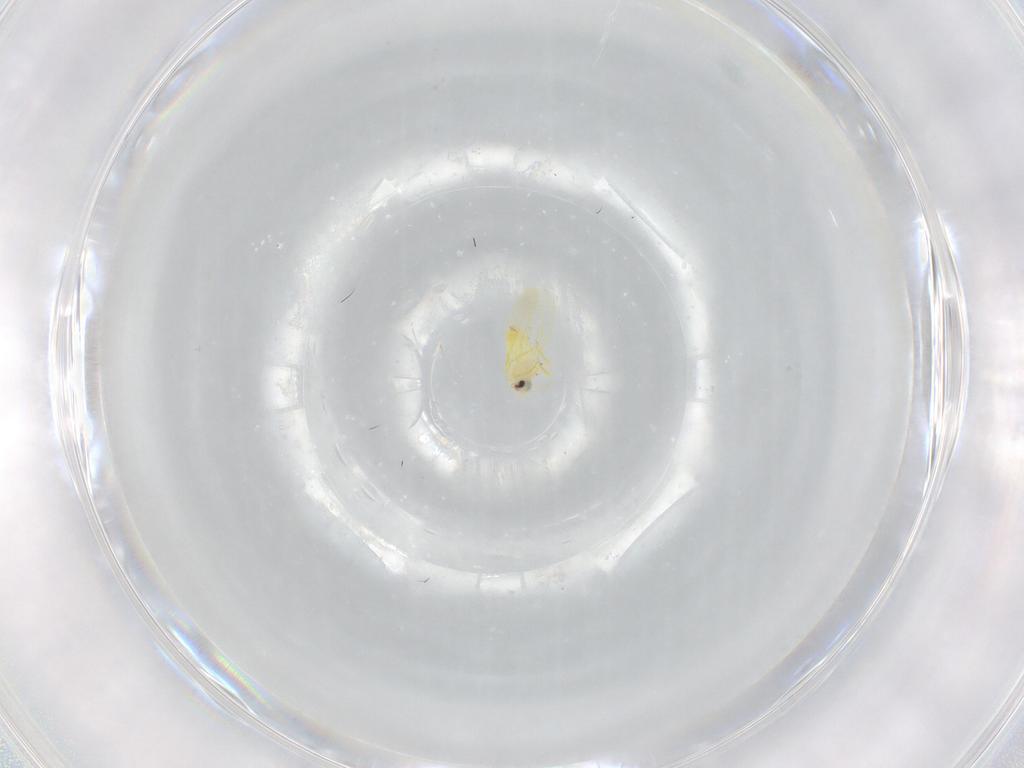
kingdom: Animalia
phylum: Arthropoda
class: Insecta
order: Hemiptera
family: Aleyrodidae
